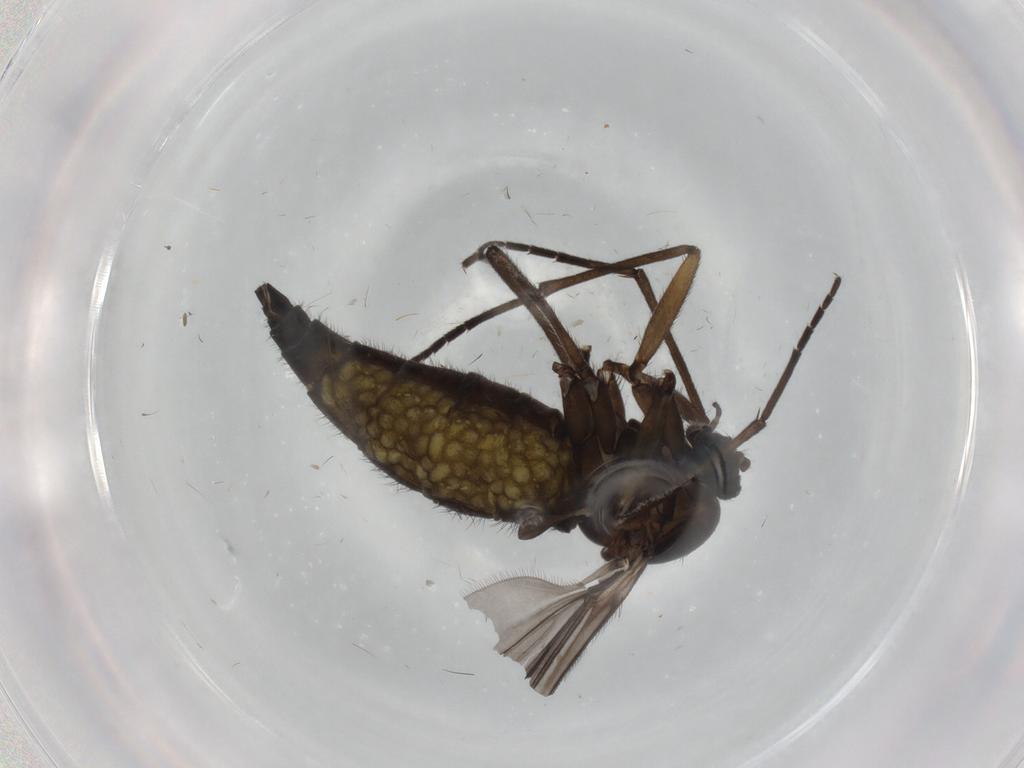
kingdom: Animalia
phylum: Arthropoda
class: Insecta
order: Diptera
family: Sciaridae
